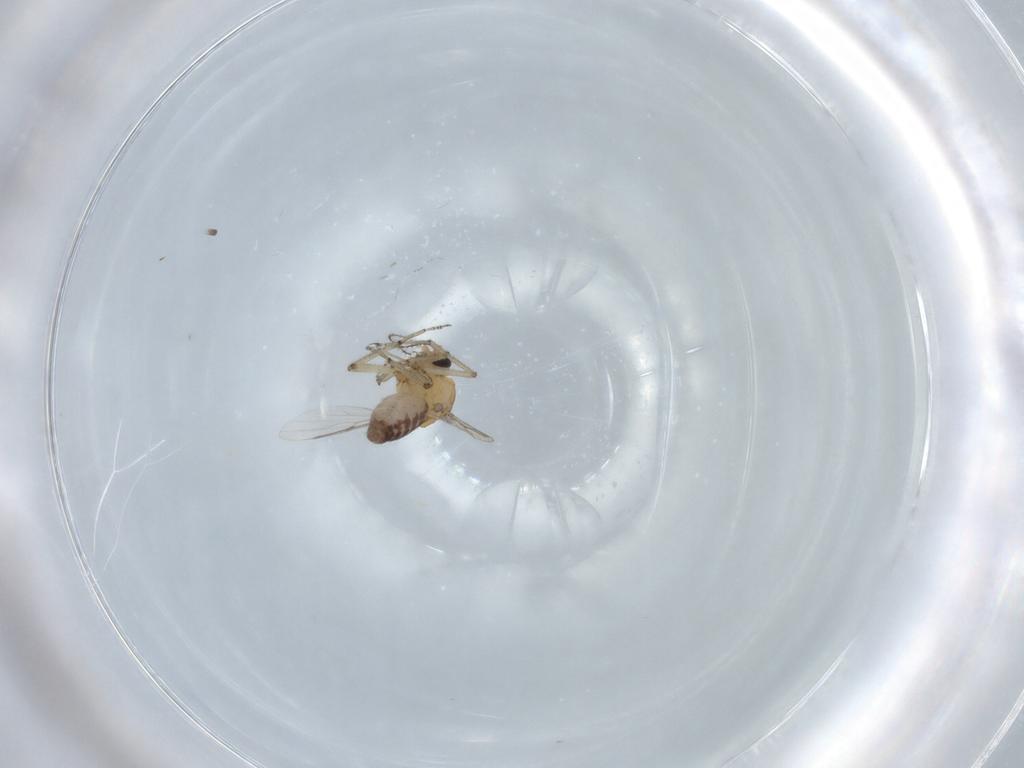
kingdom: Animalia
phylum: Arthropoda
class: Insecta
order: Diptera
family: Ceratopogonidae
